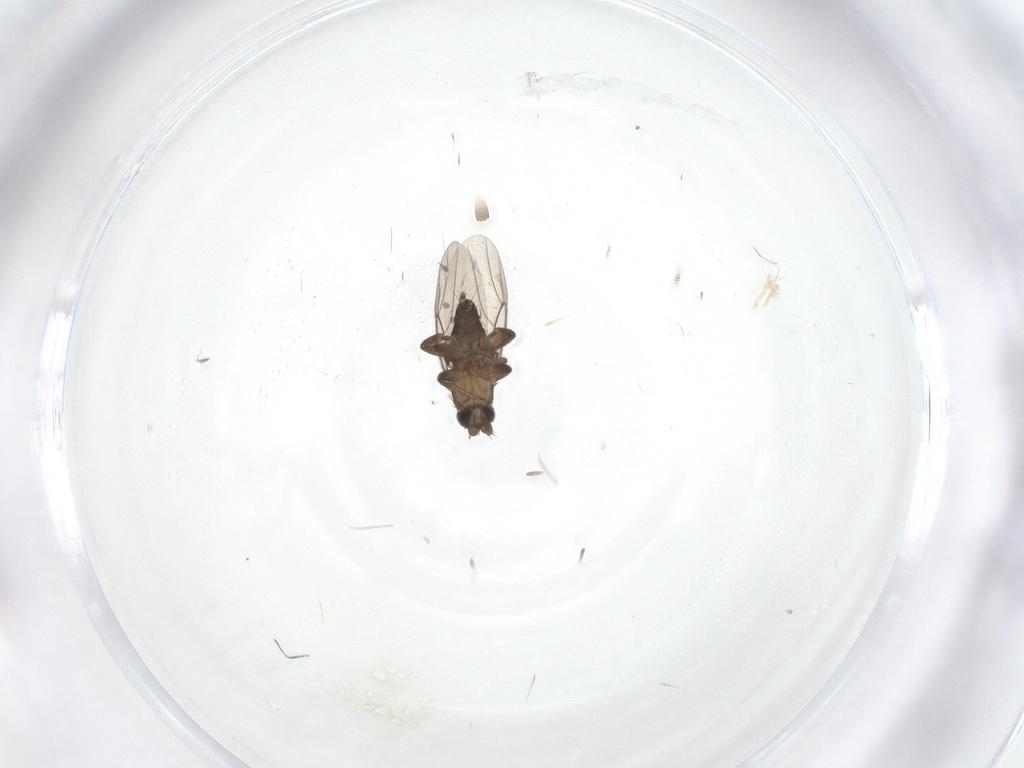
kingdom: Animalia
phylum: Arthropoda
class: Insecta
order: Diptera
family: Phoridae
